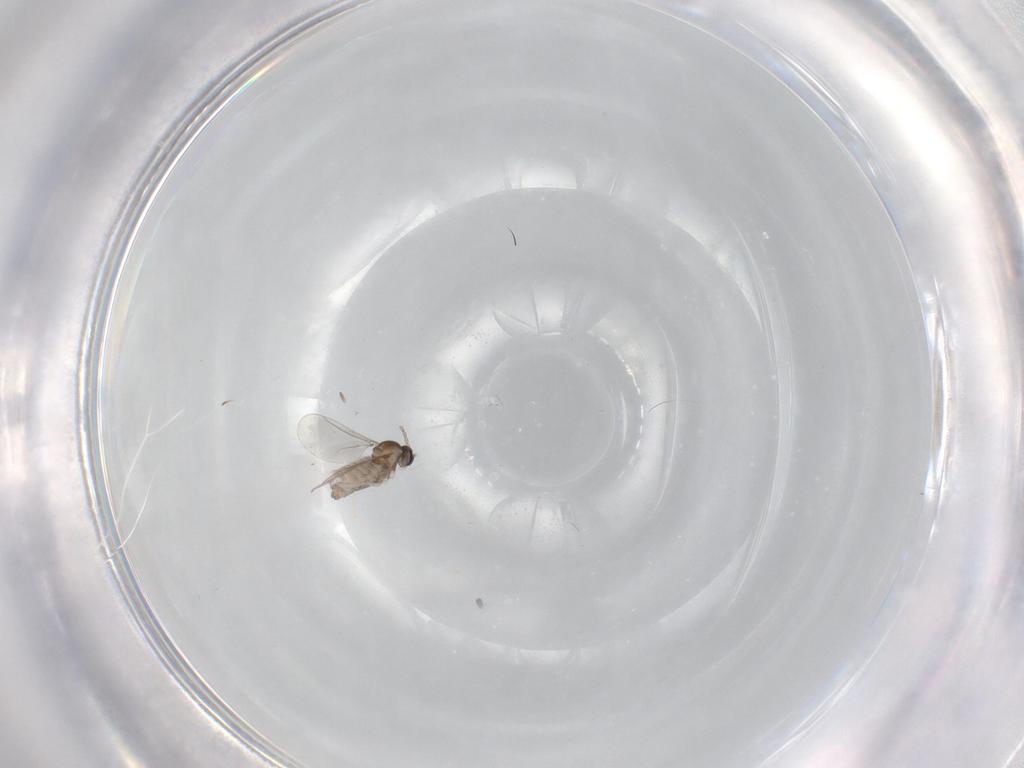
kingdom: Animalia
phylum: Arthropoda
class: Insecta
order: Diptera
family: Cecidomyiidae
